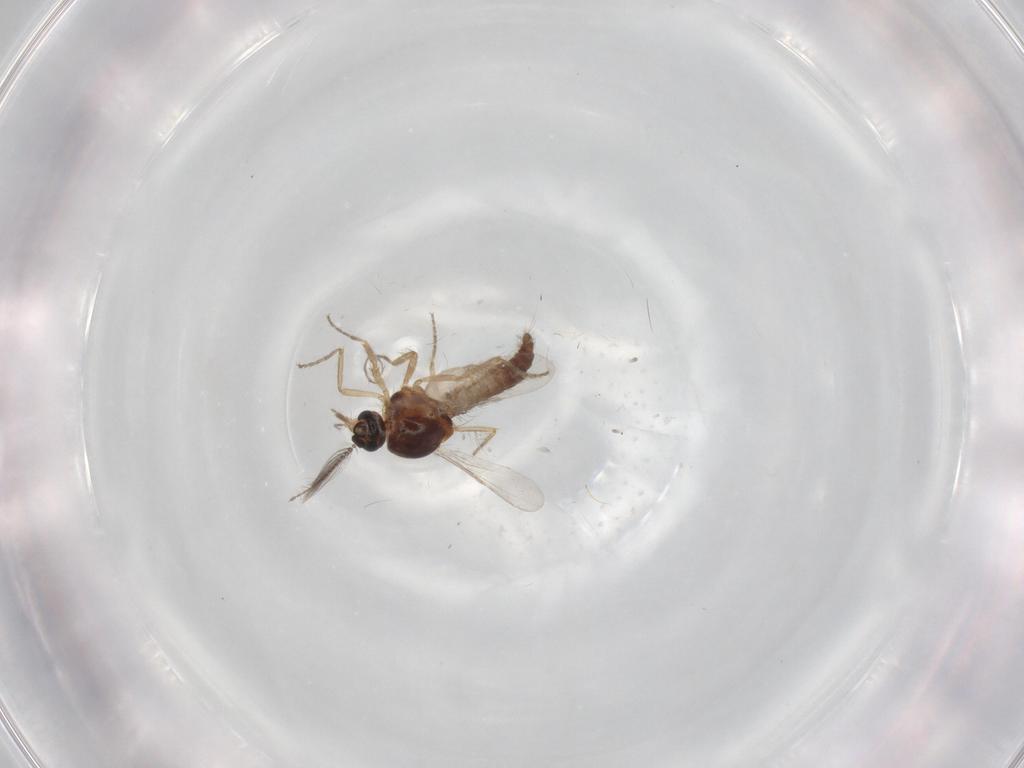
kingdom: Animalia
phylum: Arthropoda
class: Insecta
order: Diptera
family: Ceratopogonidae
